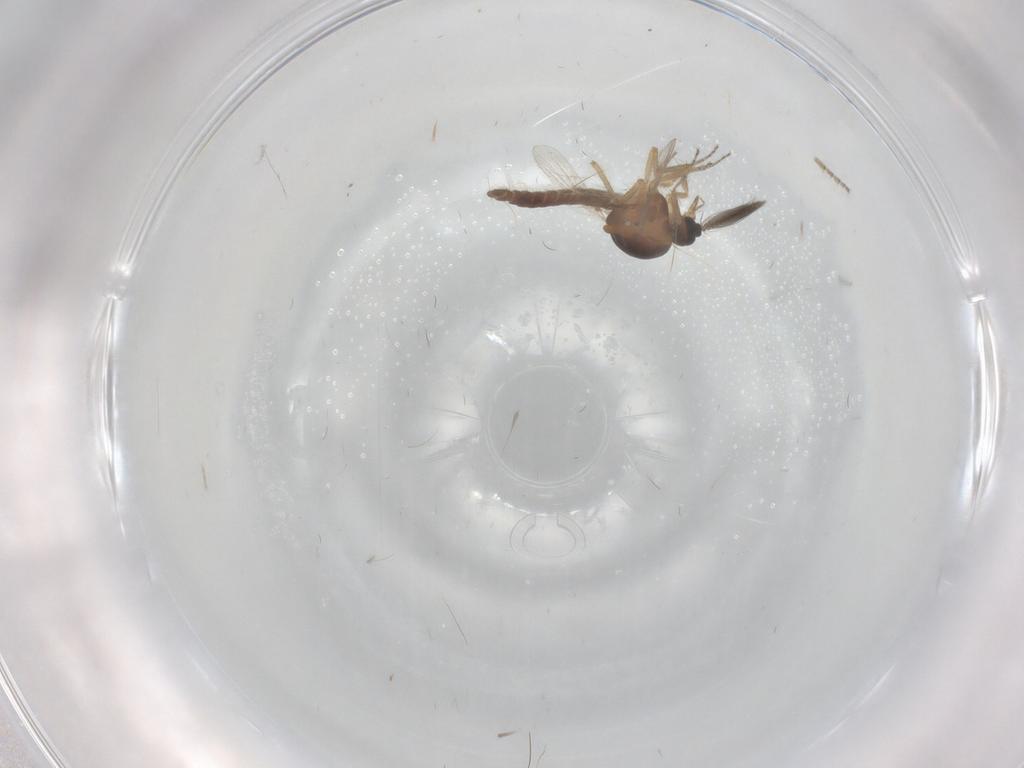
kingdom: Animalia
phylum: Arthropoda
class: Insecta
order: Diptera
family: Ceratopogonidae
